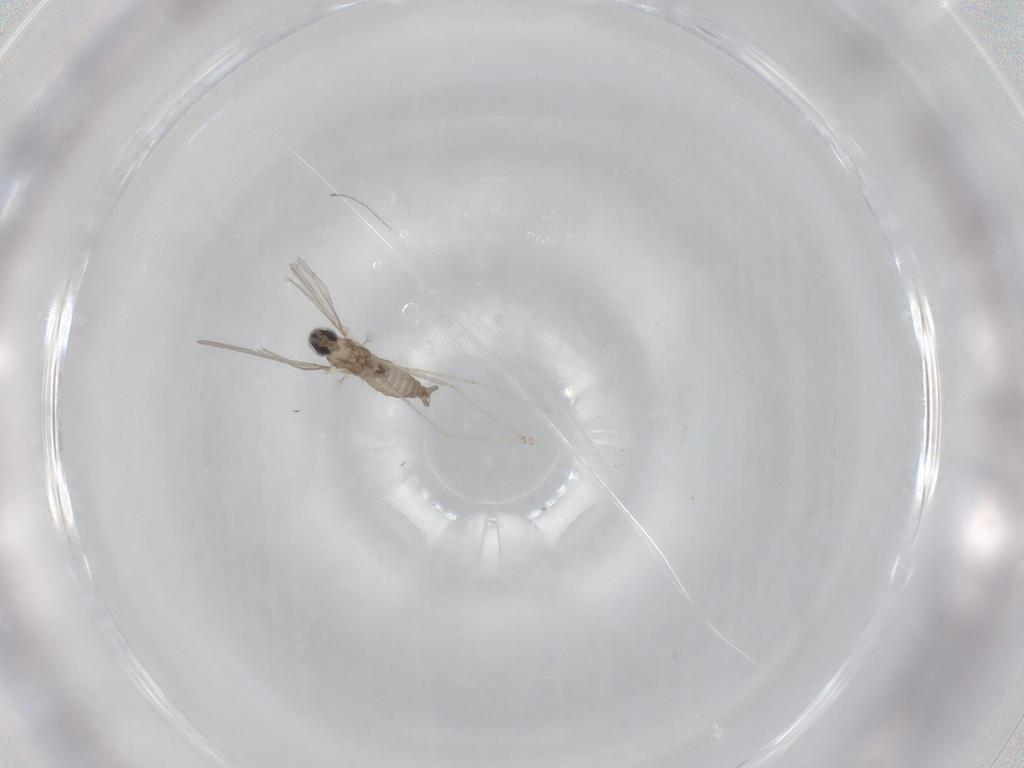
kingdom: Animalia
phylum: Arthropoda
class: Insecta
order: Diptera
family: Cecidomyiidae
